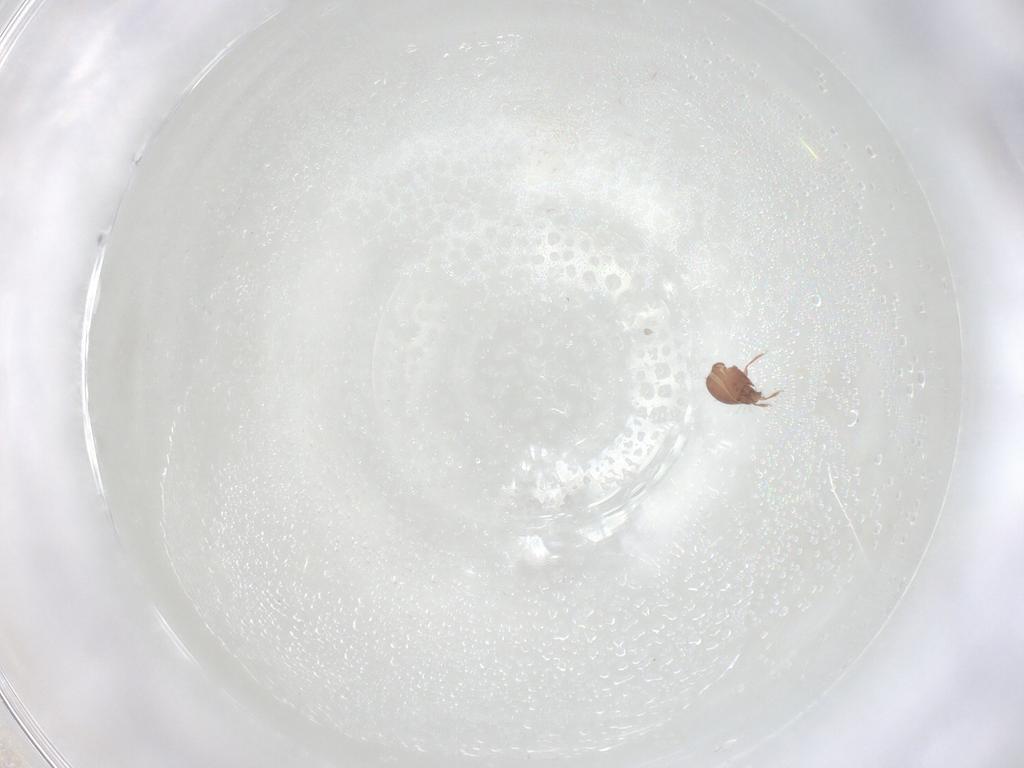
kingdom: Animalia
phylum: Arthropoda
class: Arachnida
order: Sarcoptiformes
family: Oribatulidae
